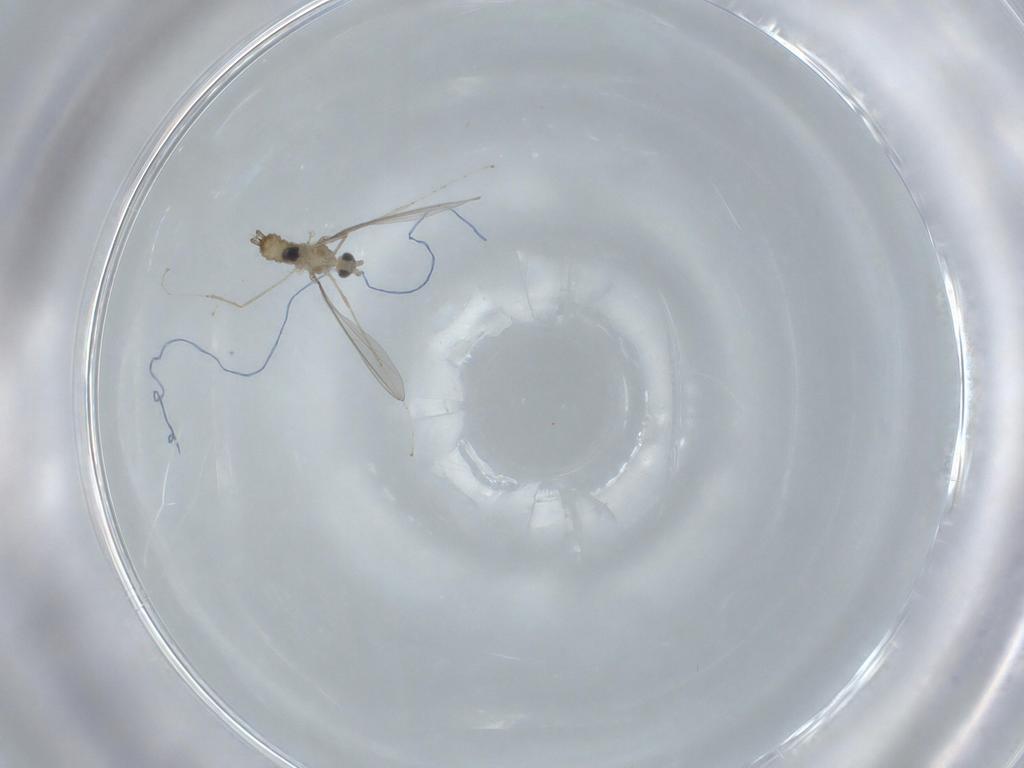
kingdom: Animalia
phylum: Arthropoda
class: Insecta
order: Diptera
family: Cecidomyiidae
